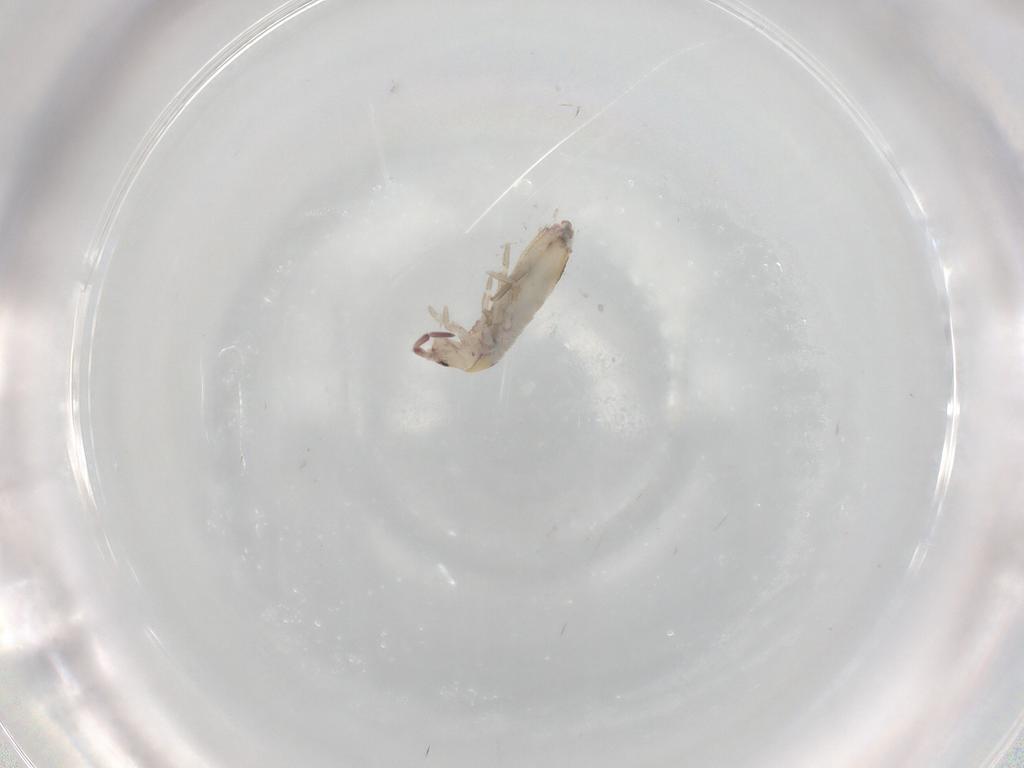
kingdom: Animalia
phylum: Arthropoda
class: Collembola
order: Entomobryomorpha
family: Entomobryidae
